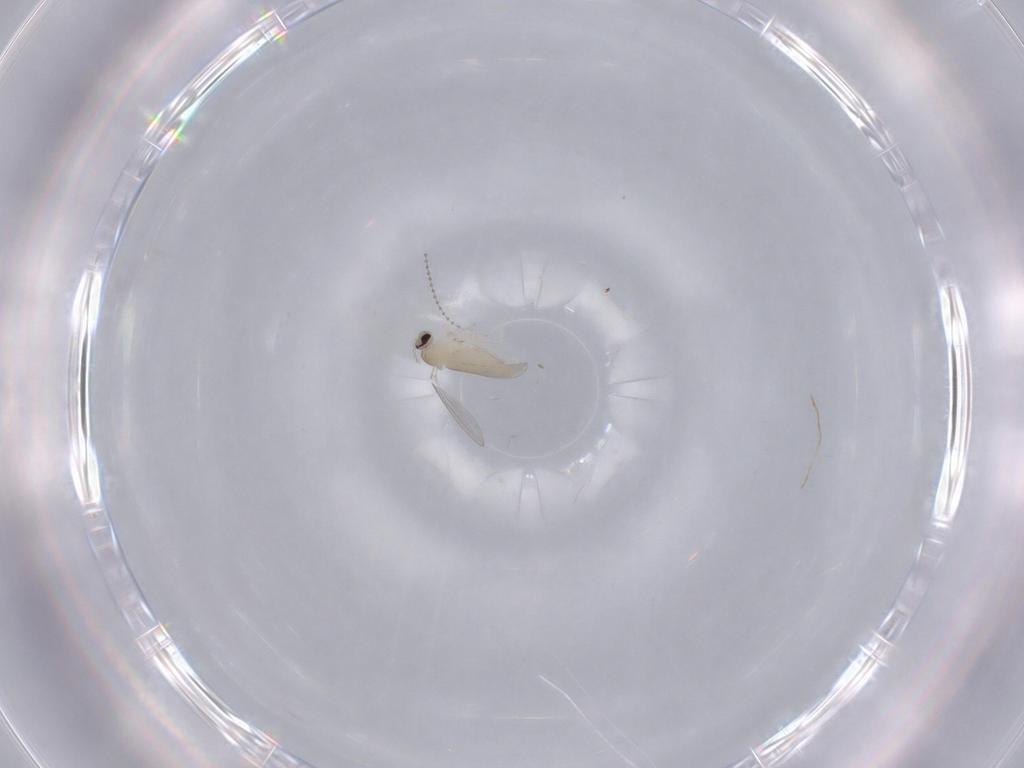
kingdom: Animalia
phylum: Arthropoda
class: Insecta
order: Diptera
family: Cecidomyiidae
